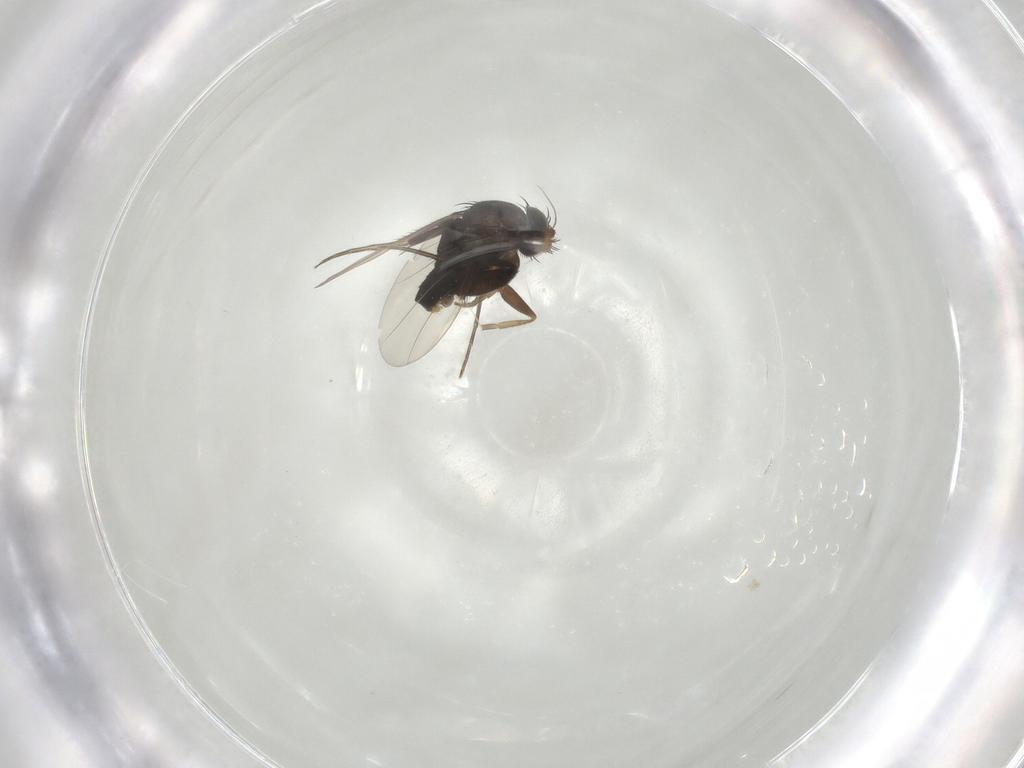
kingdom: Animalia
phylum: Arthropoda
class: Insecta
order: Diptera
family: Phoridae
